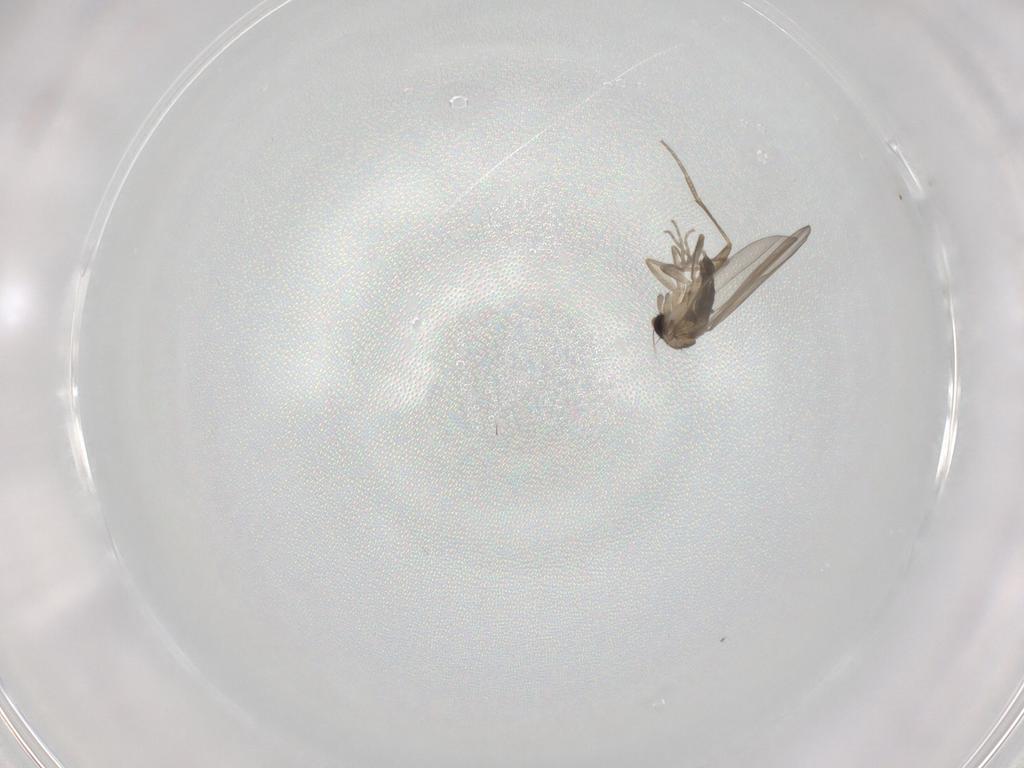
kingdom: Animalia
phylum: Arthropoda
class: Insecta
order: Diptera
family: Phoridae
